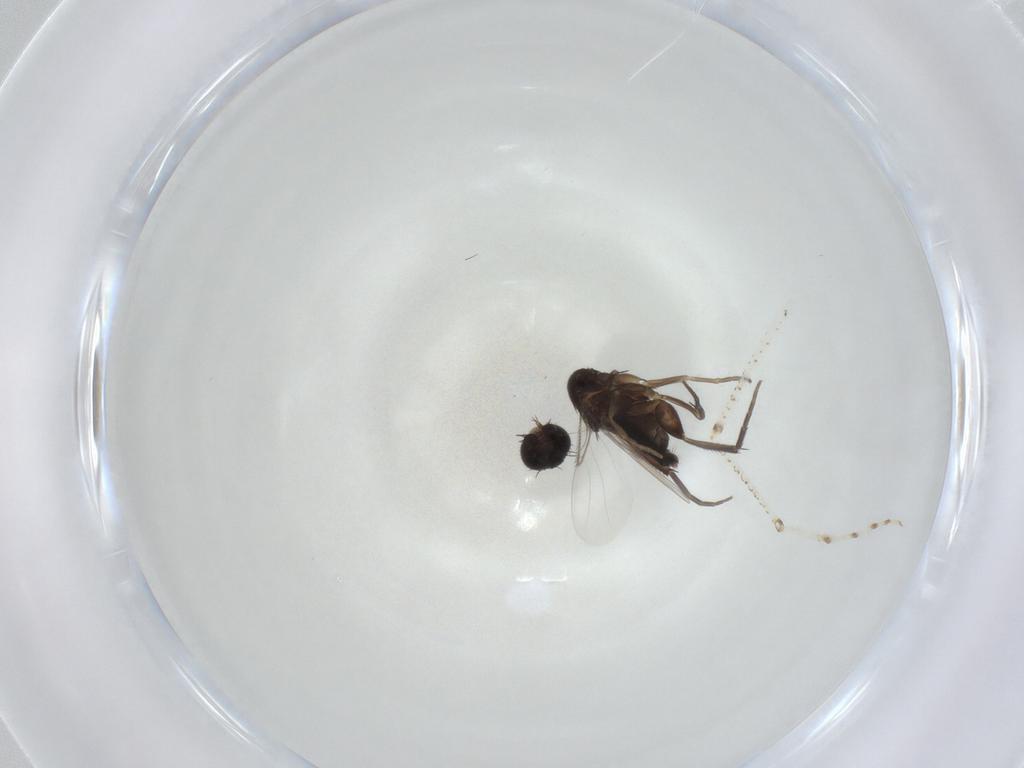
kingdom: Animalia
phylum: Arthropoda
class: Insecta
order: Diptera
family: Phoridae
